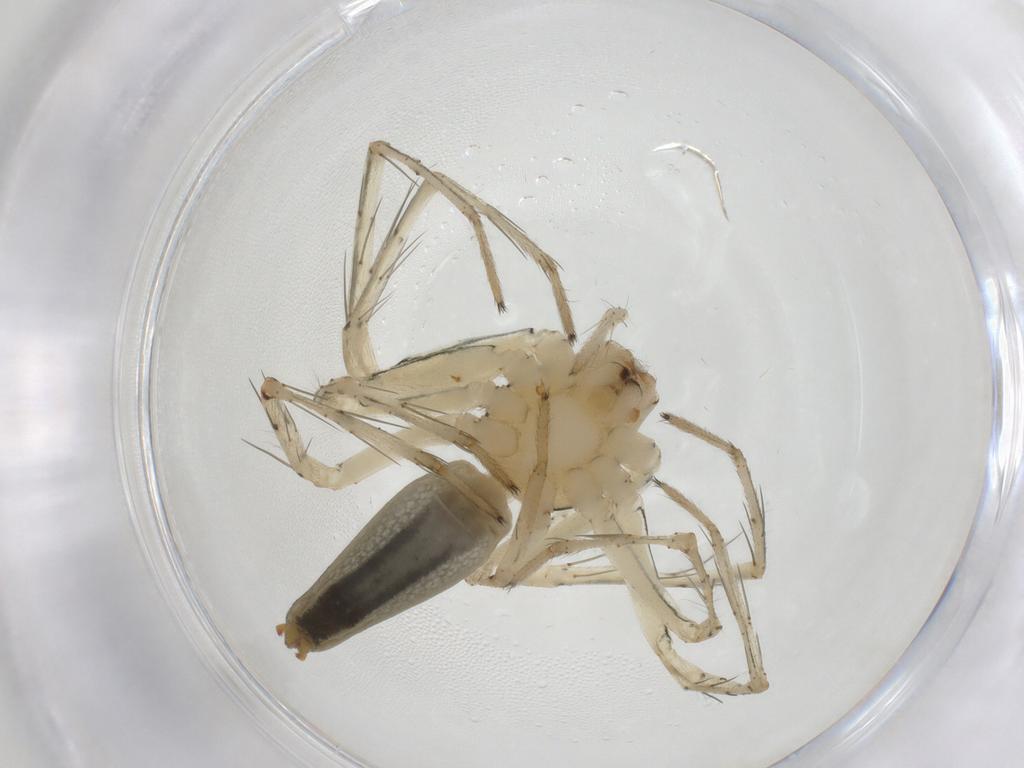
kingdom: Animalia
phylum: Arthropoda
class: Arachnida
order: Araneae
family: Oxyopidae
